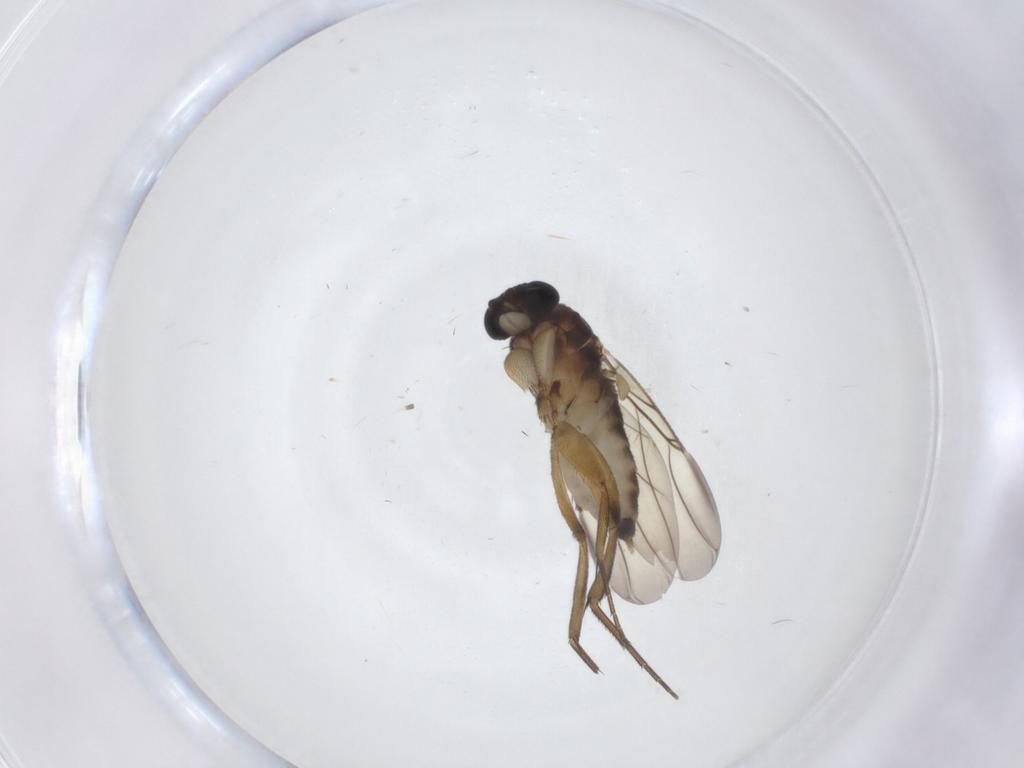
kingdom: Animalia
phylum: Arthropoda
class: Insecta
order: Diptera
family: Phoridae
